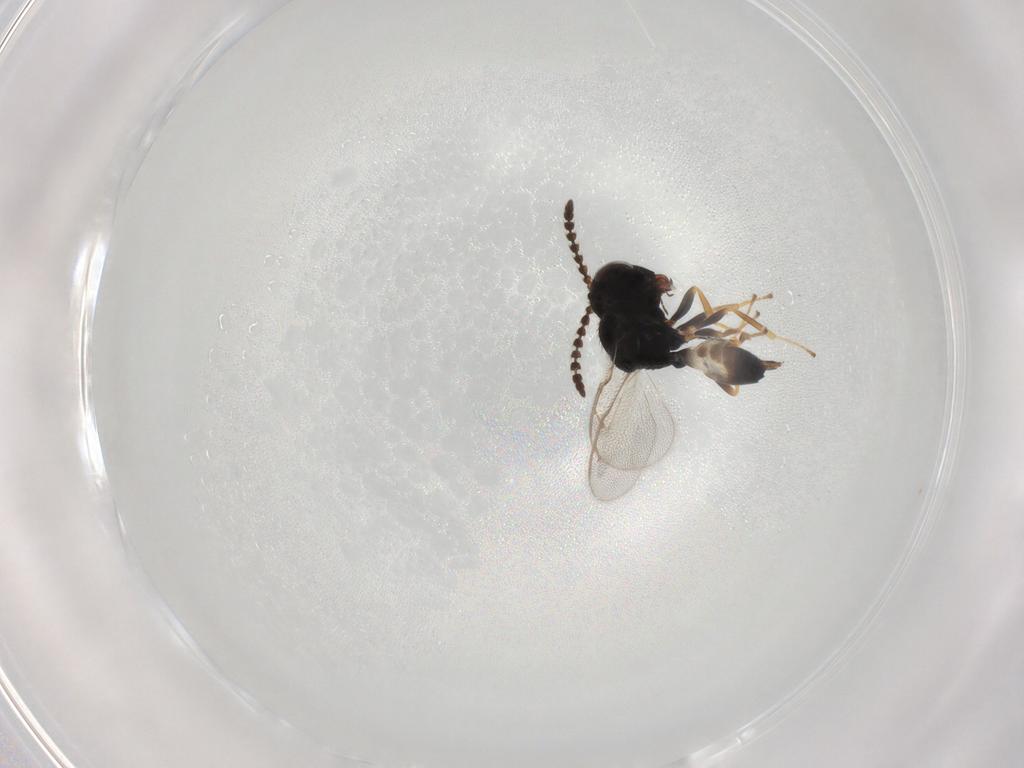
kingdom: Animalia
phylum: Arthropoda
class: Insecta
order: Hymenoptera
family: Pteromalidae
